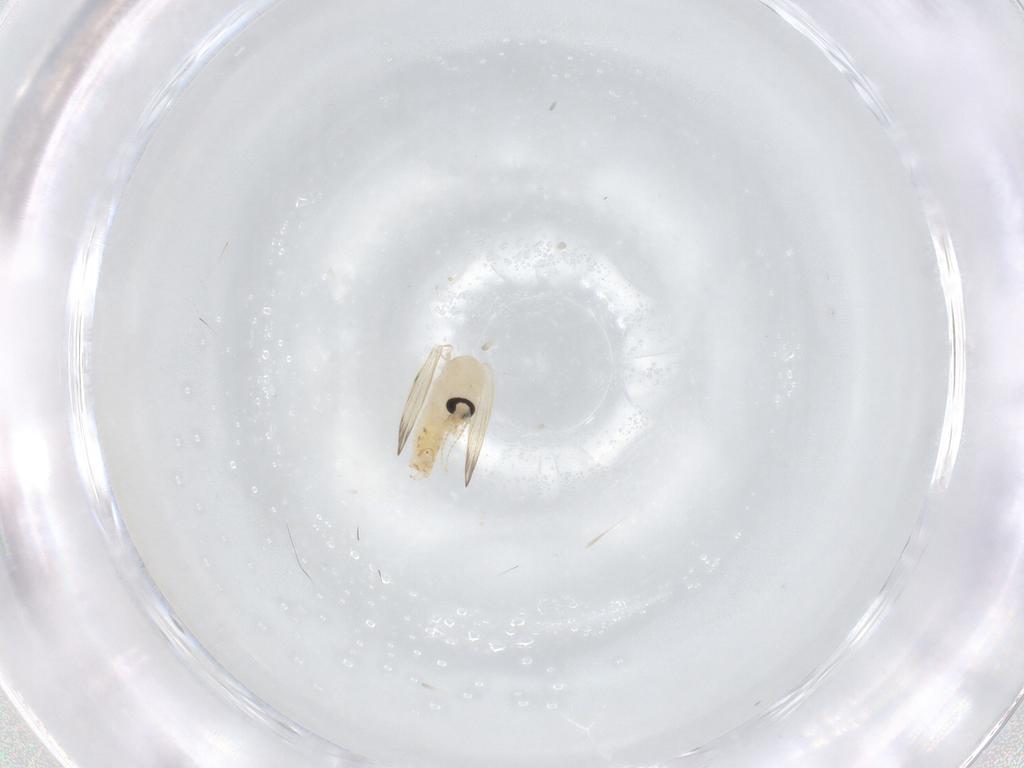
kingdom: Animalia
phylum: Arthropoda
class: Insecta
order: Diptera
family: Psychodidae
